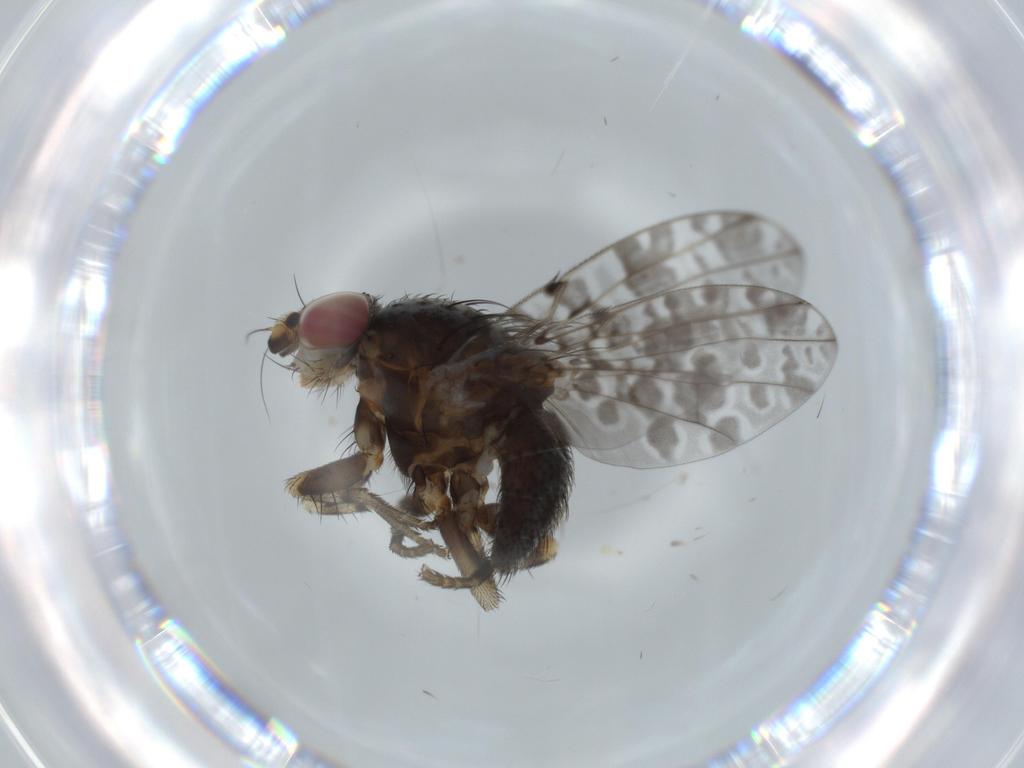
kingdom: Animalia
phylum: Arthropoda
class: Insecta
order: Diptera
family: Odiniidae
